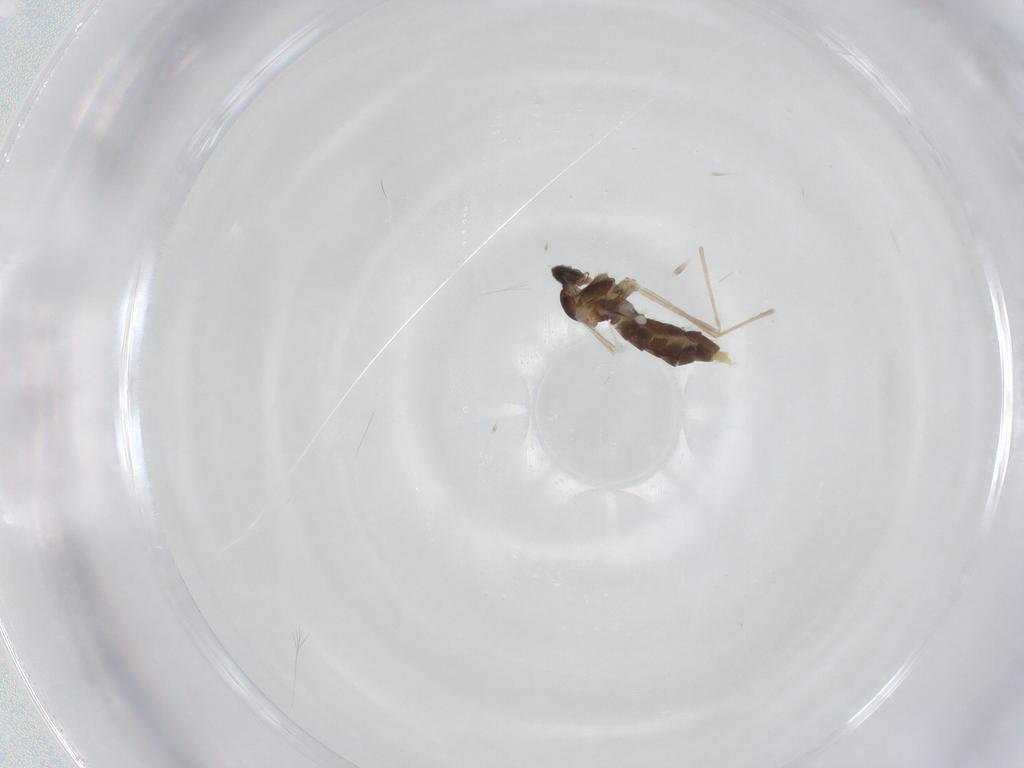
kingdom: Animalia
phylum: Arthropoda
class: Insecta
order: Diptera
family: Cecidomyiidae
